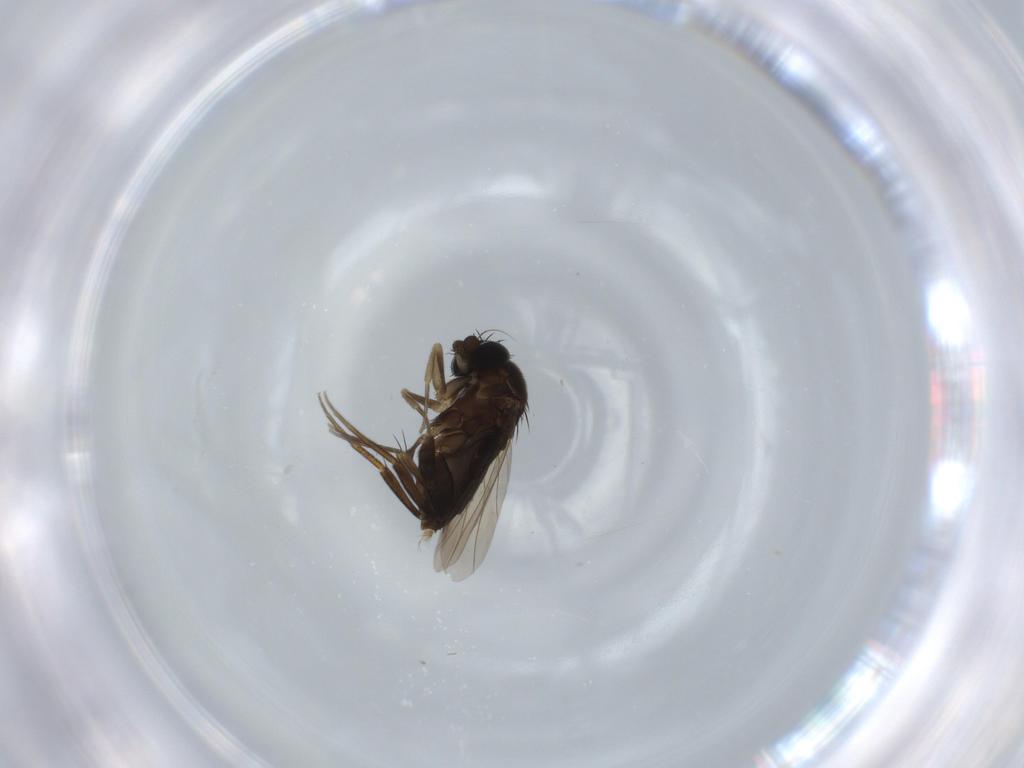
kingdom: Animalia
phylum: Arthropoda
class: Insecta
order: Diptera
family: Phoridae
